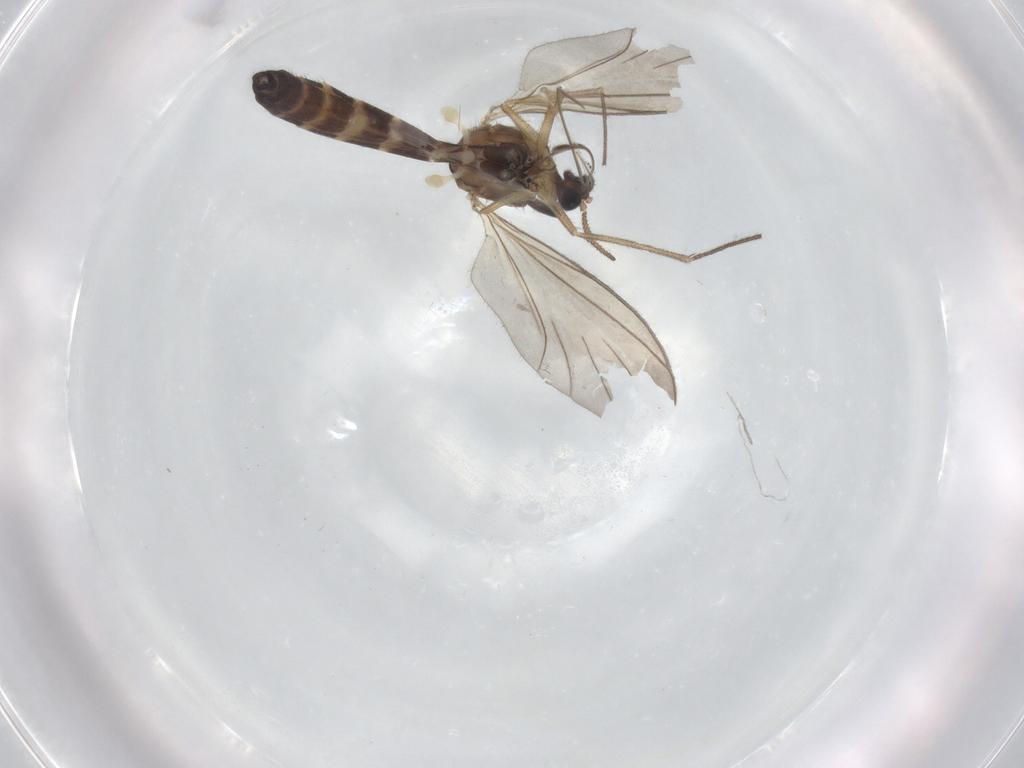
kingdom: Animalia
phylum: Arthropoda
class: Insecta
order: Diptera
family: Keroplatidae
